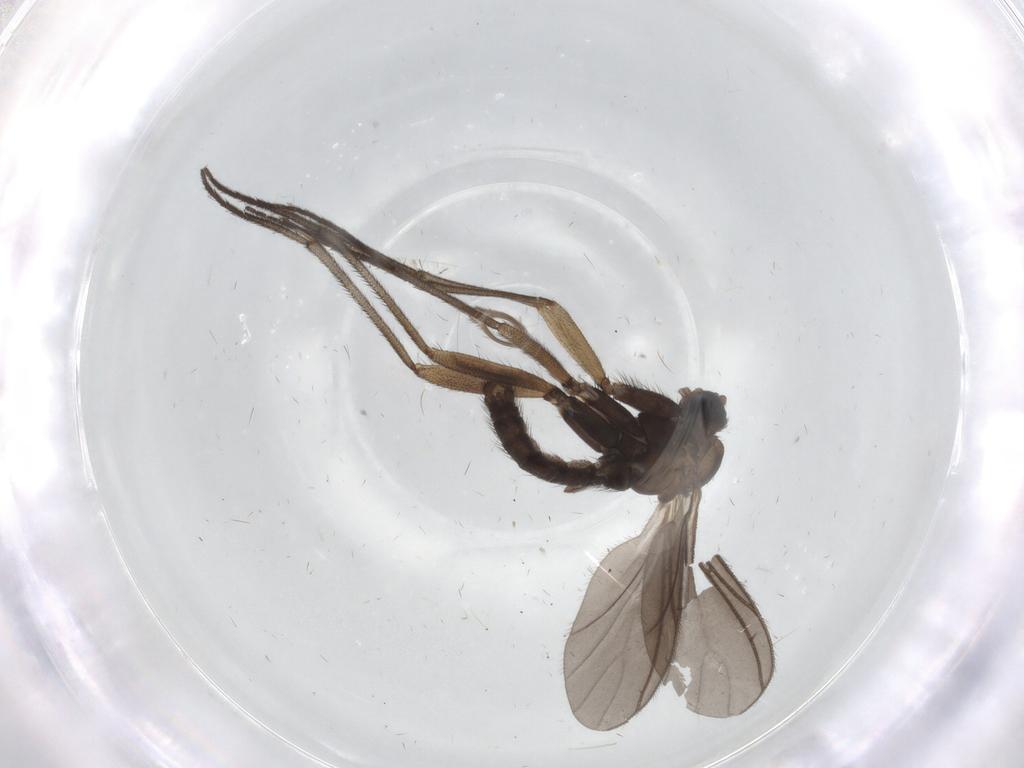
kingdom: Animalia
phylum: Arthropoda
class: Insecta
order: Diptera
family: Sciaridae
